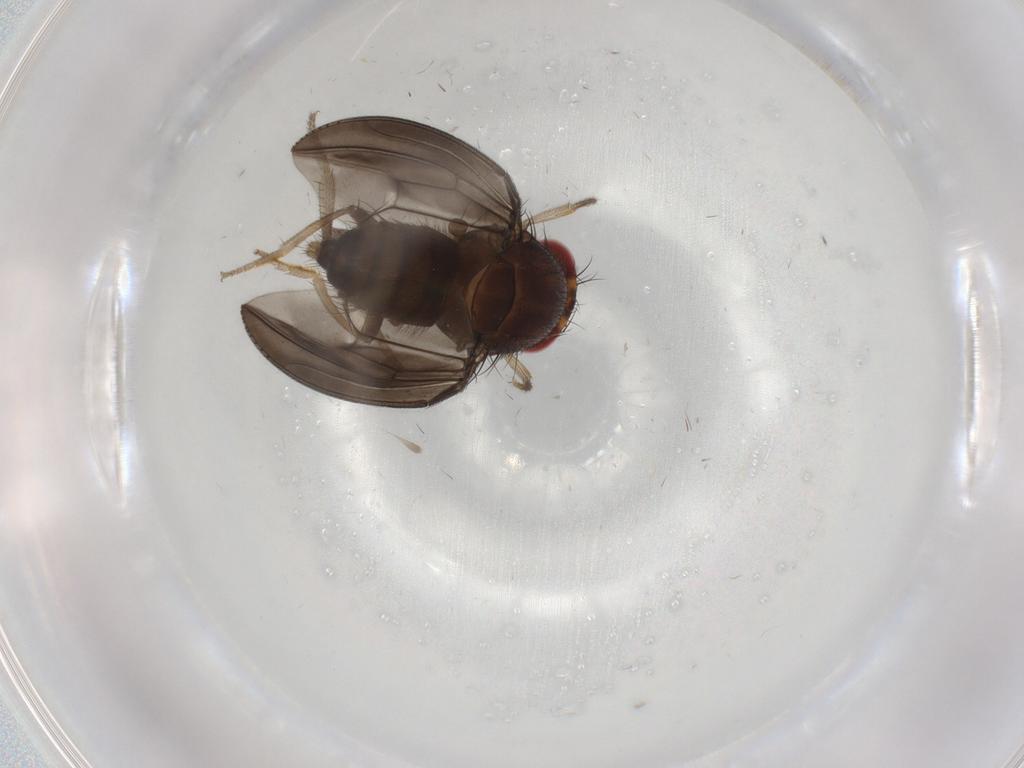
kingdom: Animalia
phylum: Arthropoda
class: Insecta
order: Diptera
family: Drosophilidae
